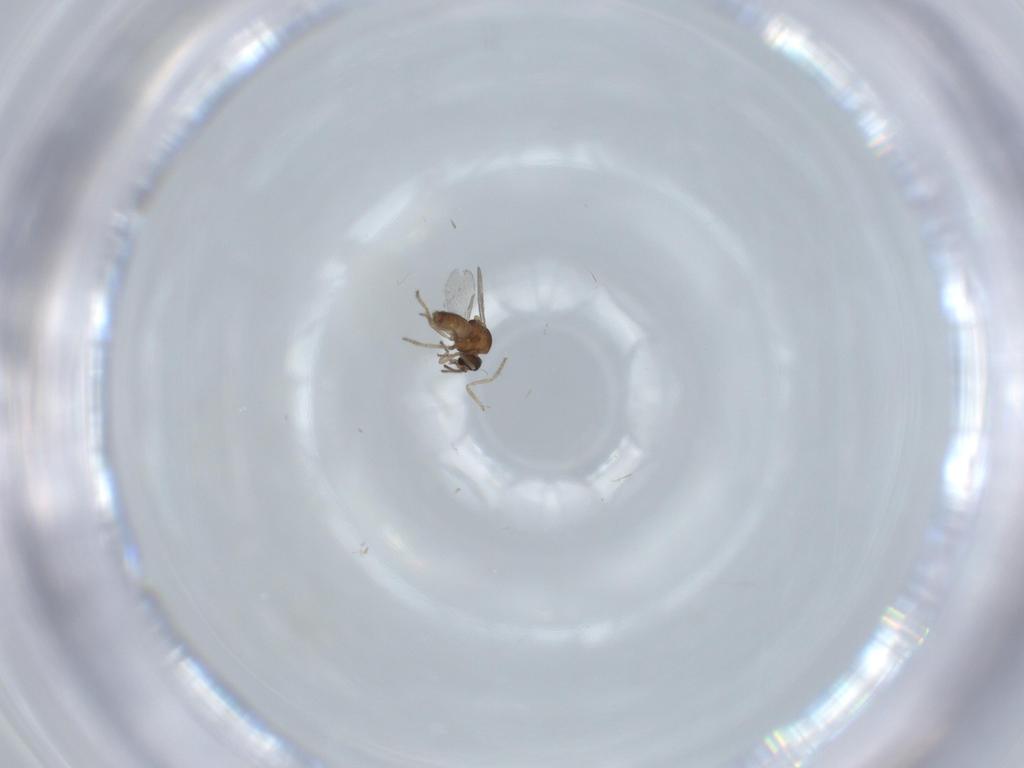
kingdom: Animalia
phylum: Arthropoda
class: Insecta
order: Diptera
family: Ceratopogonidae
